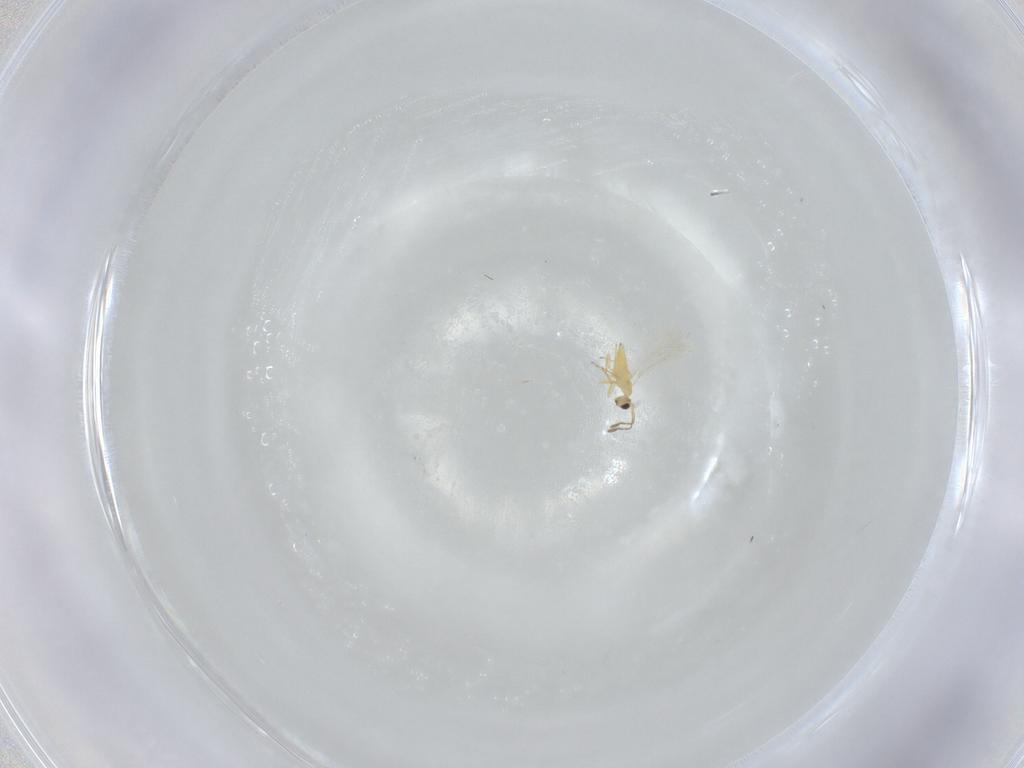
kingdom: Animalia
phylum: Arthropoda
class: Insecta
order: Hymenoptera
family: Mymaridae
